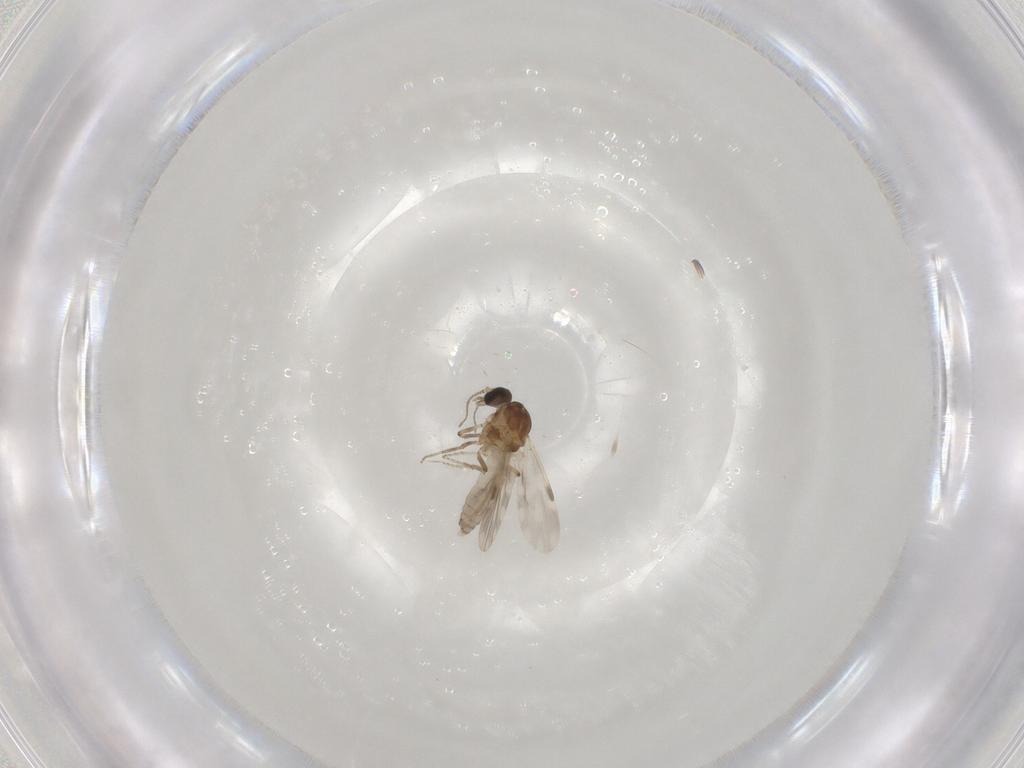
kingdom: Animalia
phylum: Arthropoda
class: Insecta
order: Diptera
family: Ceratopogonidae
